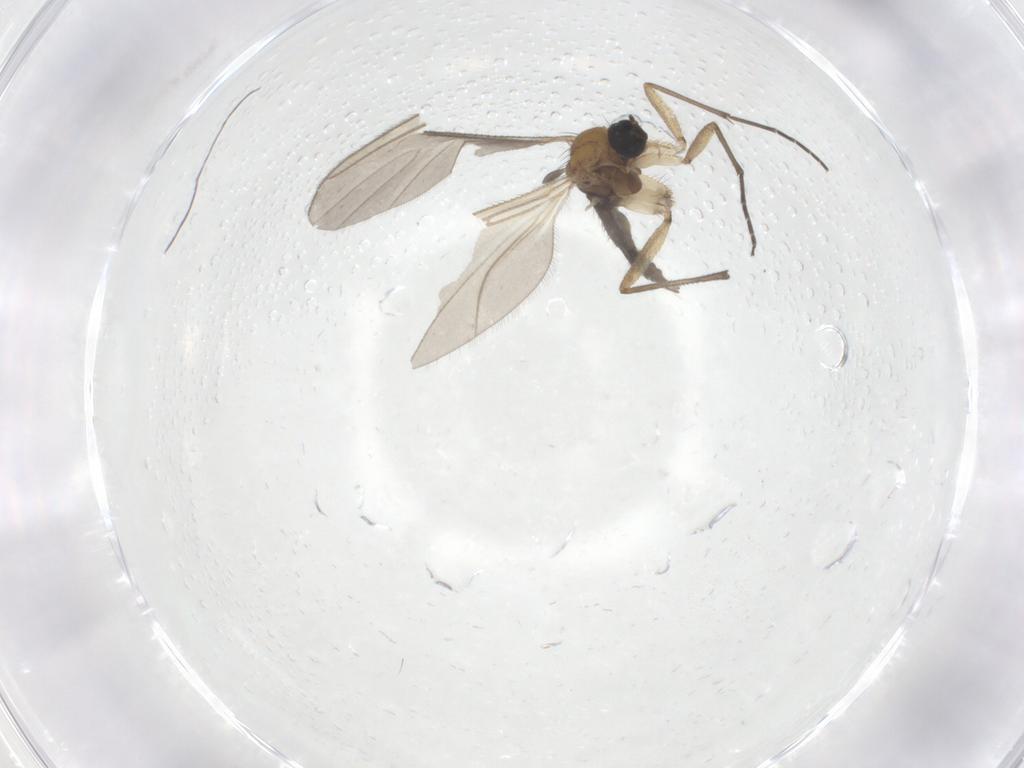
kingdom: Animalia
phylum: Arthropoda
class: Insecta
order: Diptera
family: Sciaridae
